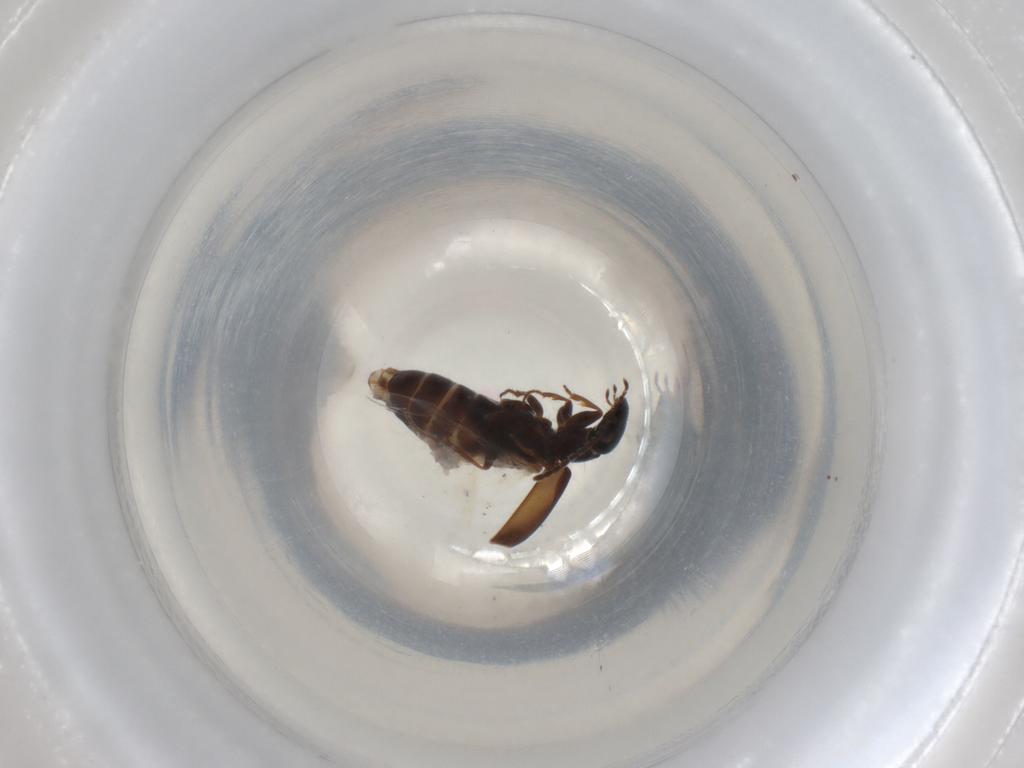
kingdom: Animalia
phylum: Arthropoda
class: Insecta
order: Coleoptera
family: Carabidae
